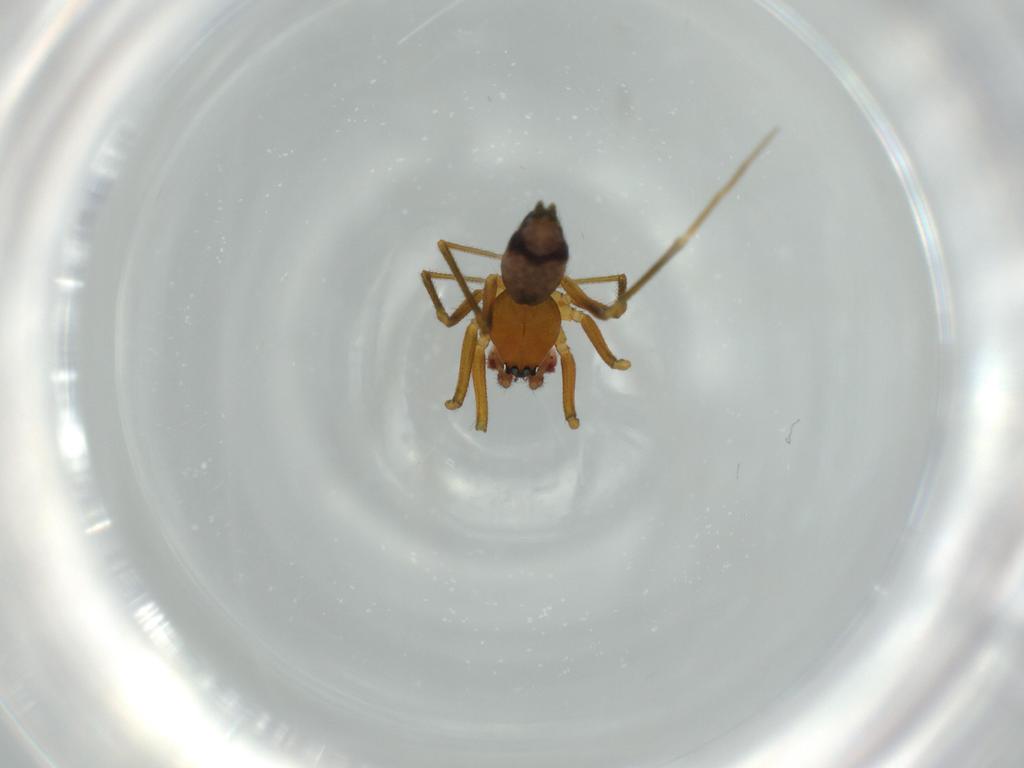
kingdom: Animalia
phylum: Arthropoda
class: Arachnida
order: Araneae
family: Linyphiidae
